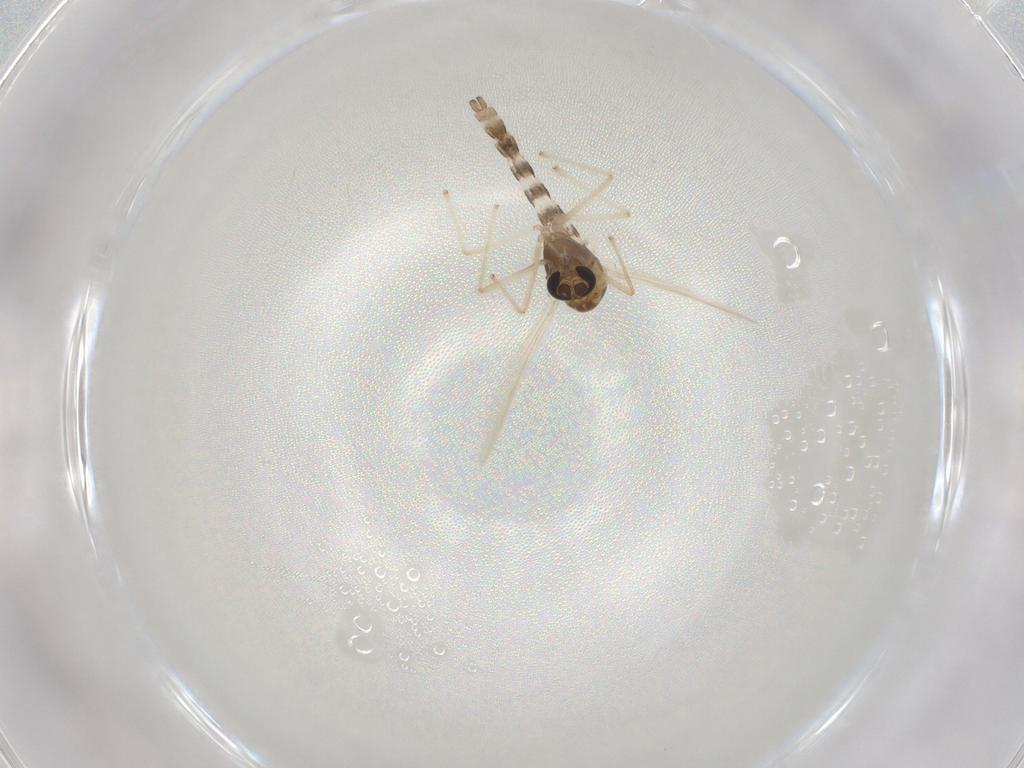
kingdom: Animalia
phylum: Arthropoda
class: Insecta
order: Diptera
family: Chironomidae
